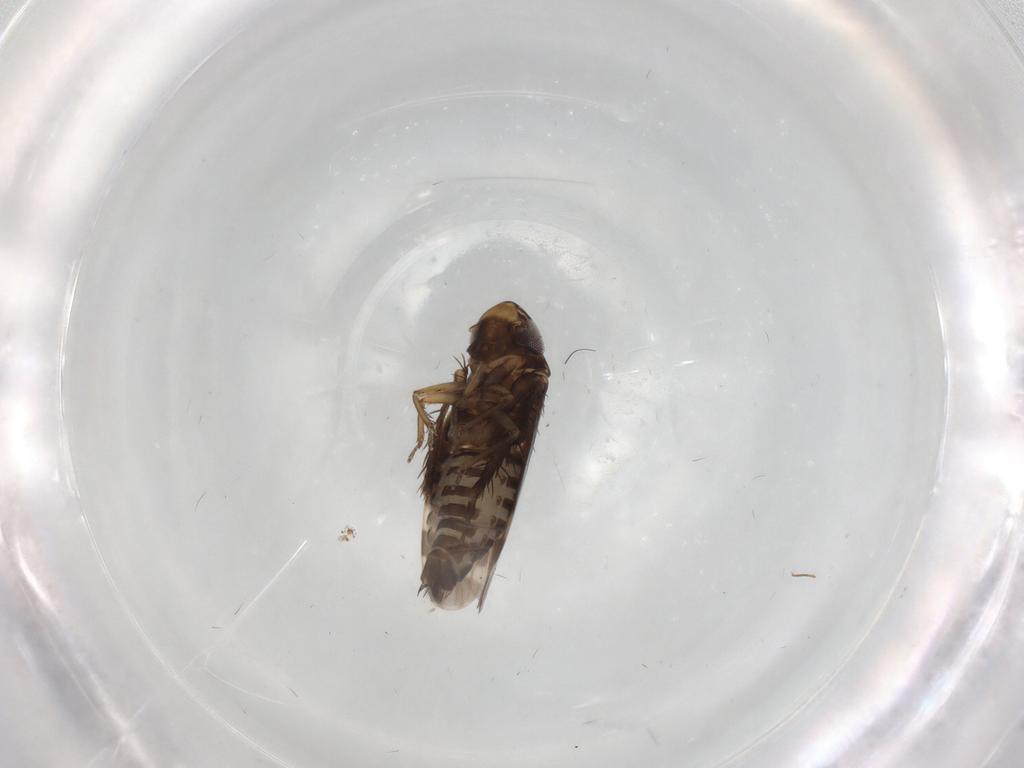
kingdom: Animalia
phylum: Arthropoda
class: Insecta
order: Hemiptera
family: Cicadellidae
